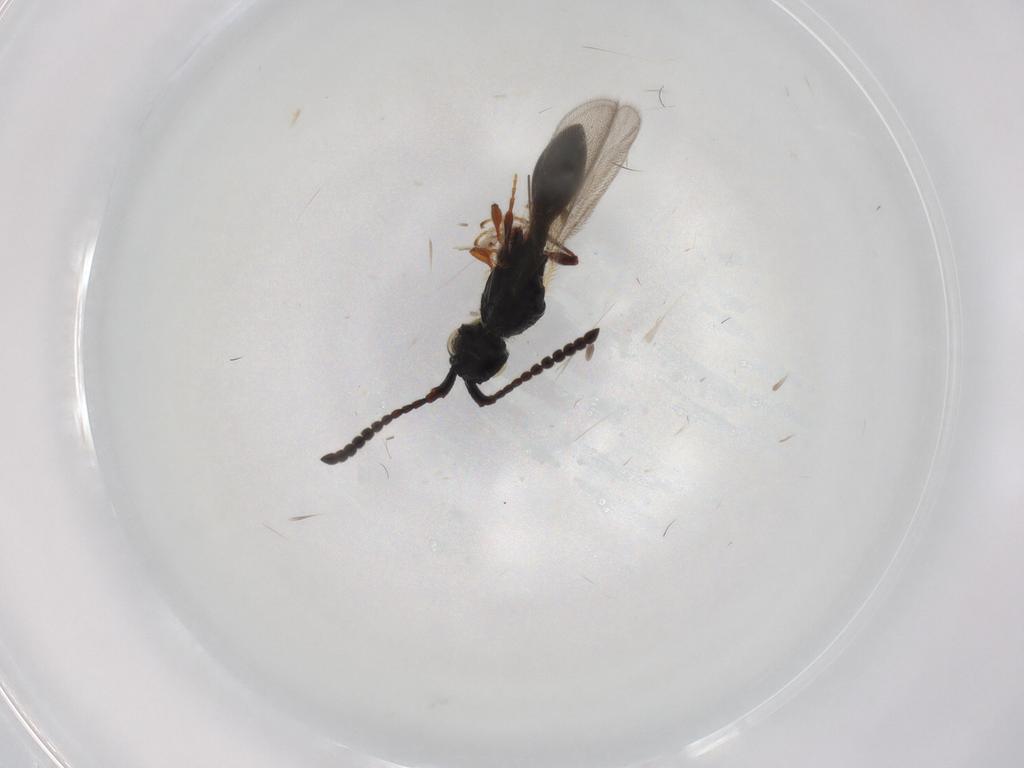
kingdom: Animalia
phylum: Arthropoda
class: Insecta
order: Hymenoptera
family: Diapriidae
